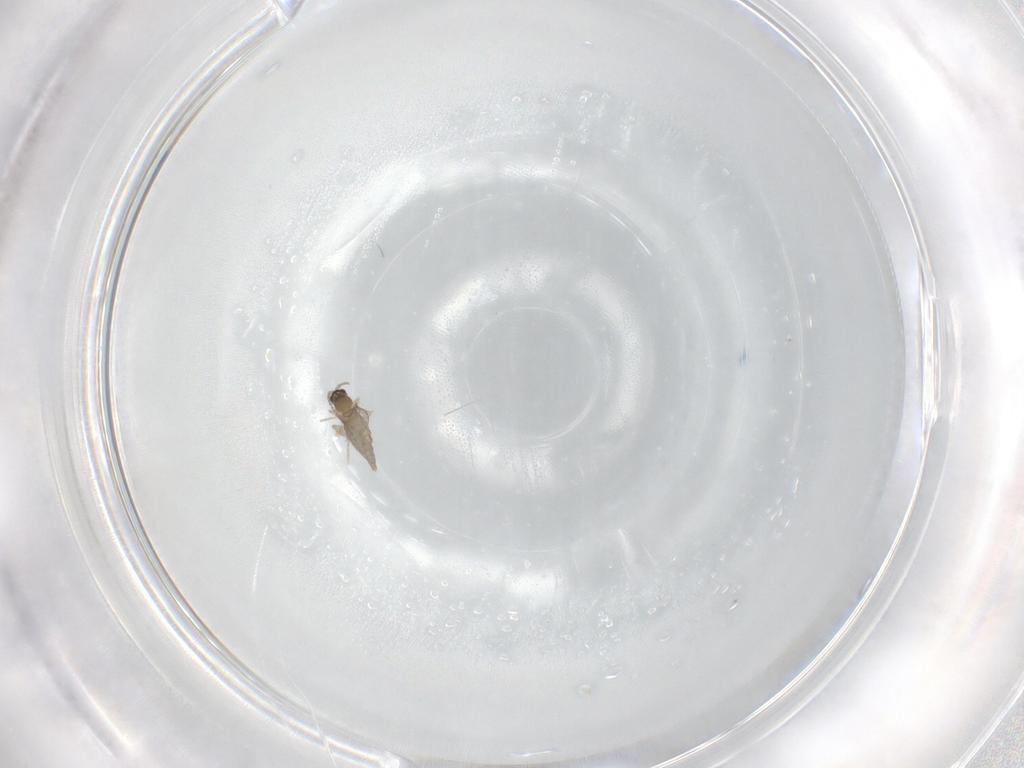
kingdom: Animalia
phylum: Arthropoda
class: Insecta
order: Diptera
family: Cecidomyiidae
